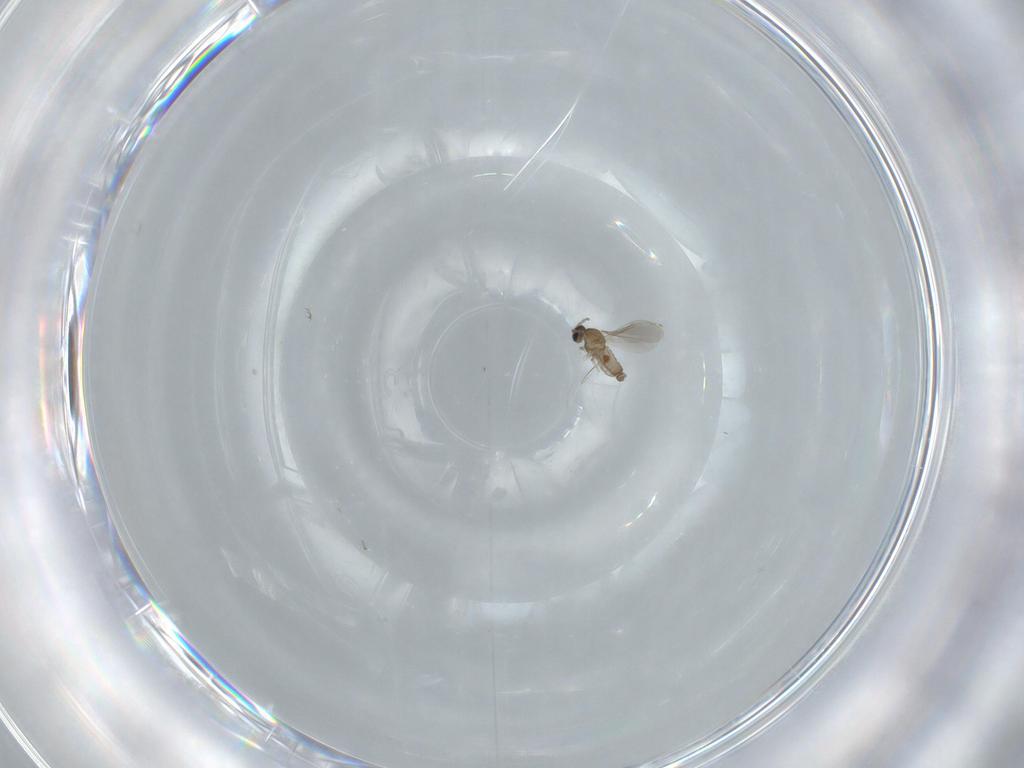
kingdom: Animalia
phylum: Arthropoda
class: Insecta
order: Diptera
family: Cecidomyiidae
